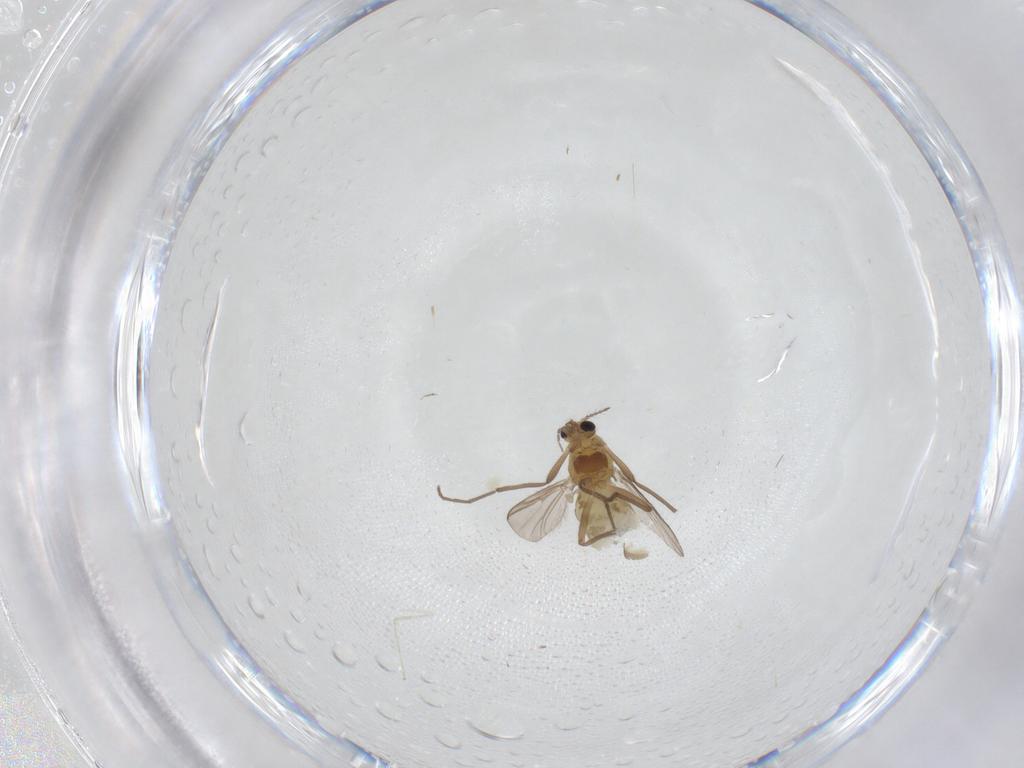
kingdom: Animalia
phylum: Arthropoda
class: Insecta
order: Diptera
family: Chironomidae
